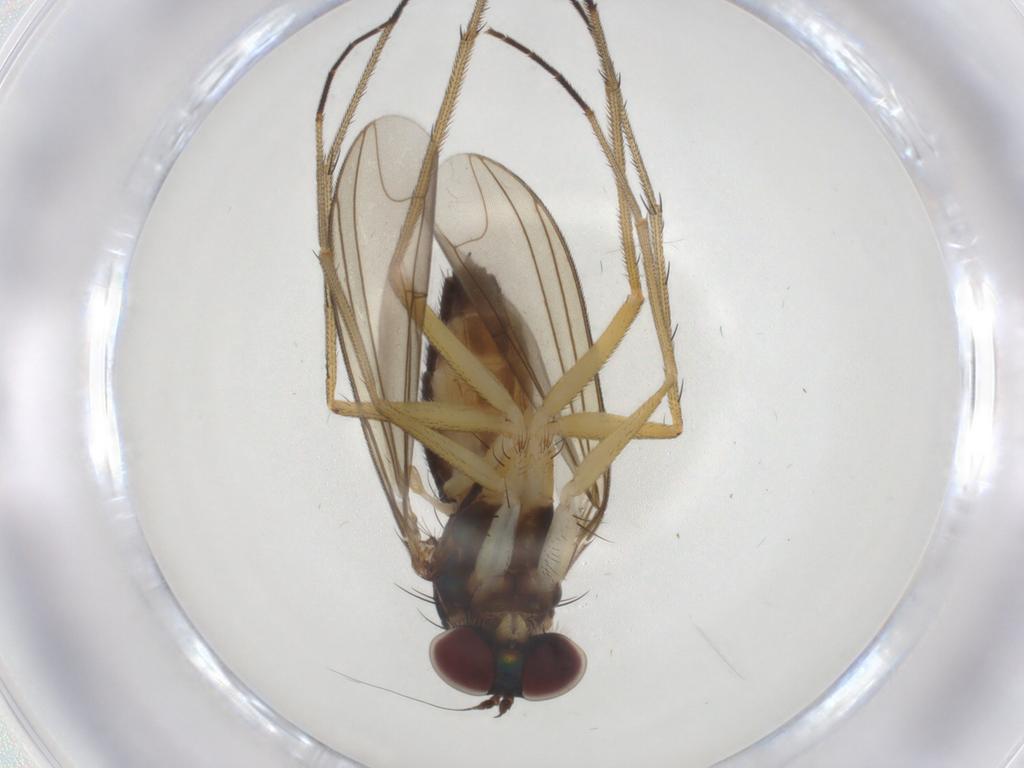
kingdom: Animalia
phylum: Arthropoda
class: Insecta
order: Diptera
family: Dolichopodidae
